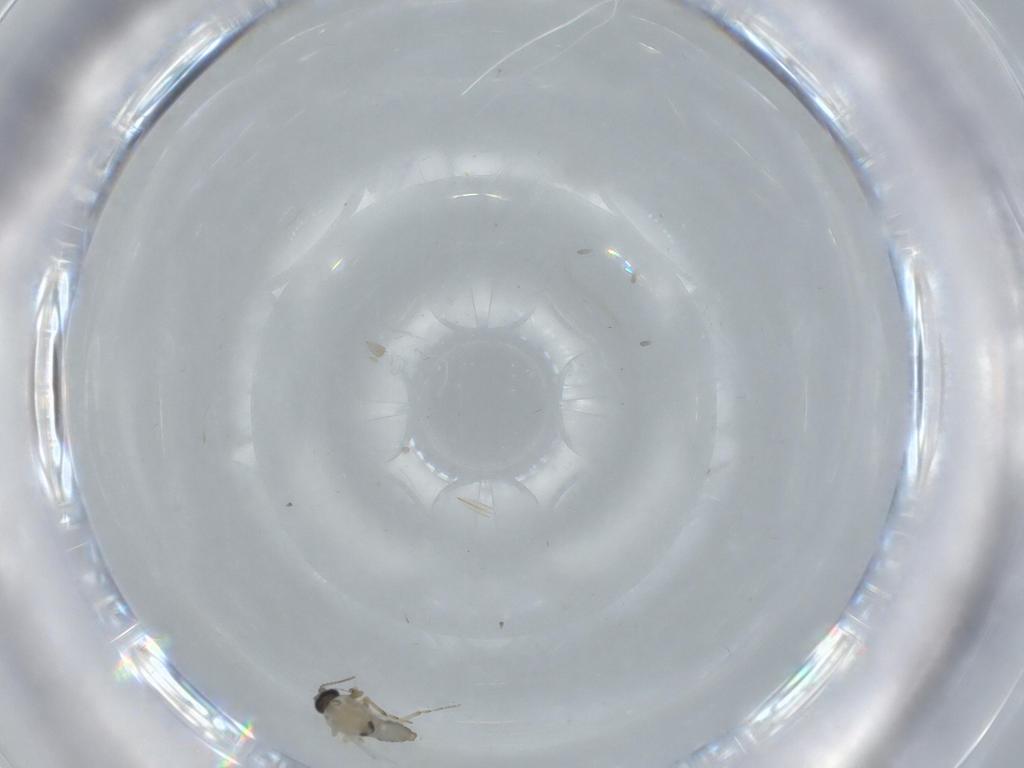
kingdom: Animalia
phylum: Arthropoda
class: Insecta
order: Diptera
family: Ceratopogonidae
